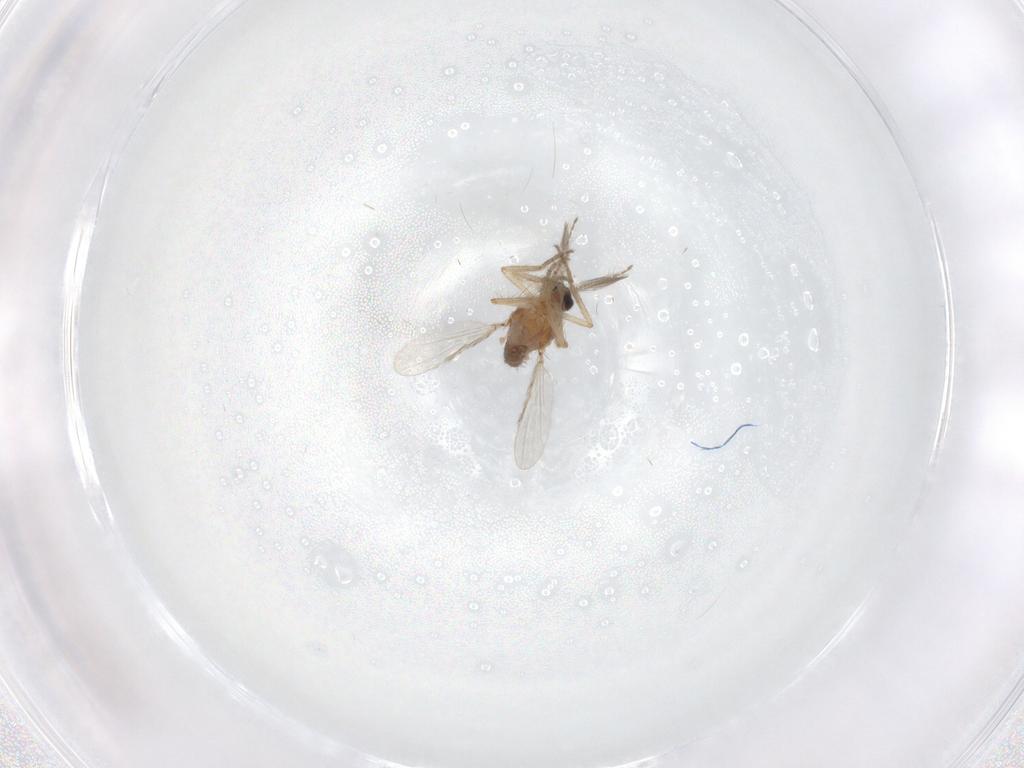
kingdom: Animalia
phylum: Arthropoda
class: Insecta
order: Diptera
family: Ceratopogonidae
